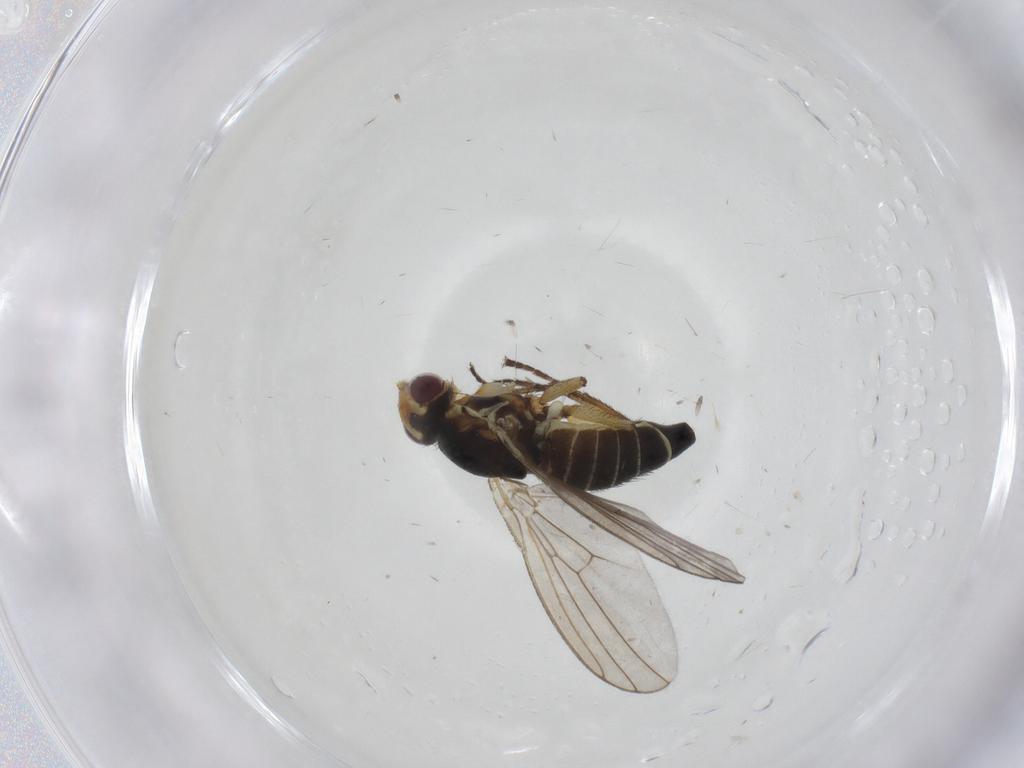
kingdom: Animalia
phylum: Arthropoda
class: Insecta
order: Diptera
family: Agromyzidae
